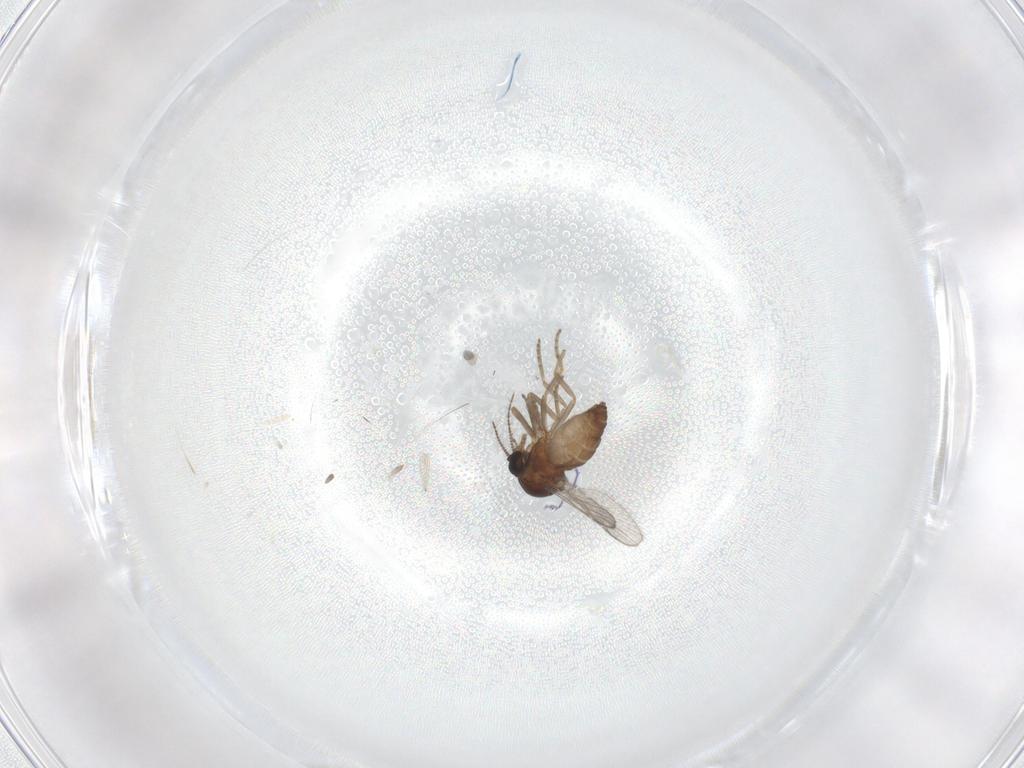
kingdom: Animalia
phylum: Arthropoda
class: Insecta
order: Diptera
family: Ceratopogonidae
